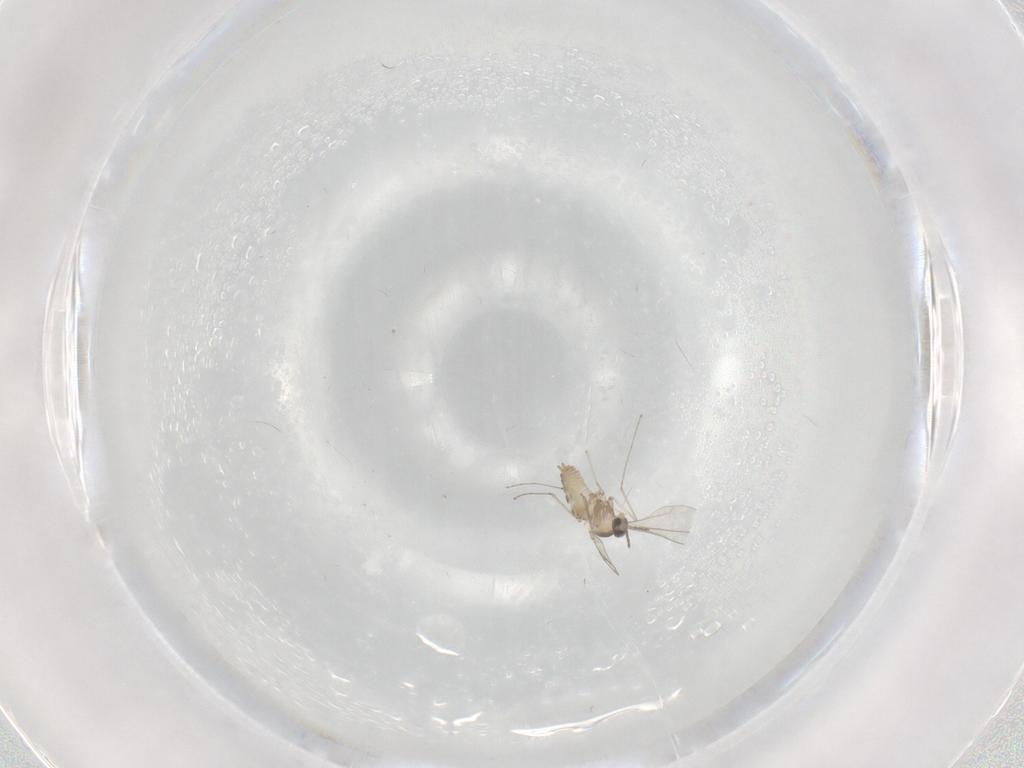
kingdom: Animalia
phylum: Arthropoda
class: Insecta
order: Diptera
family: Cecidomyiidae
